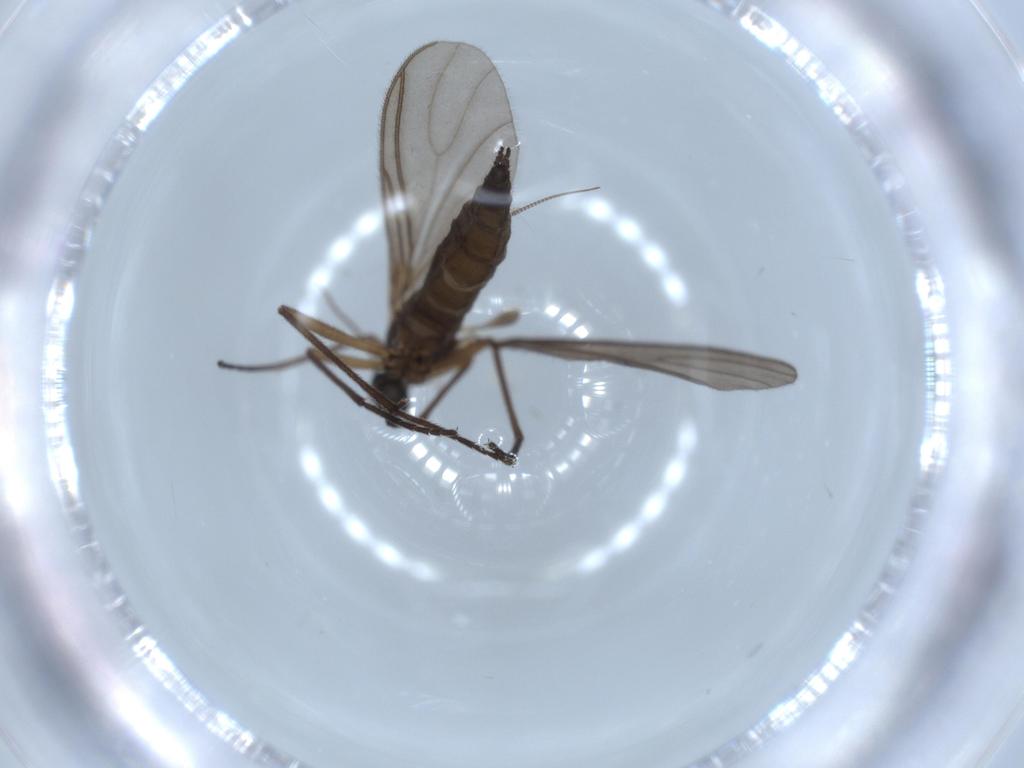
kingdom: Animalia
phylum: Arthropoda
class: Insecta
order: Diptera
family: Sciaridae
